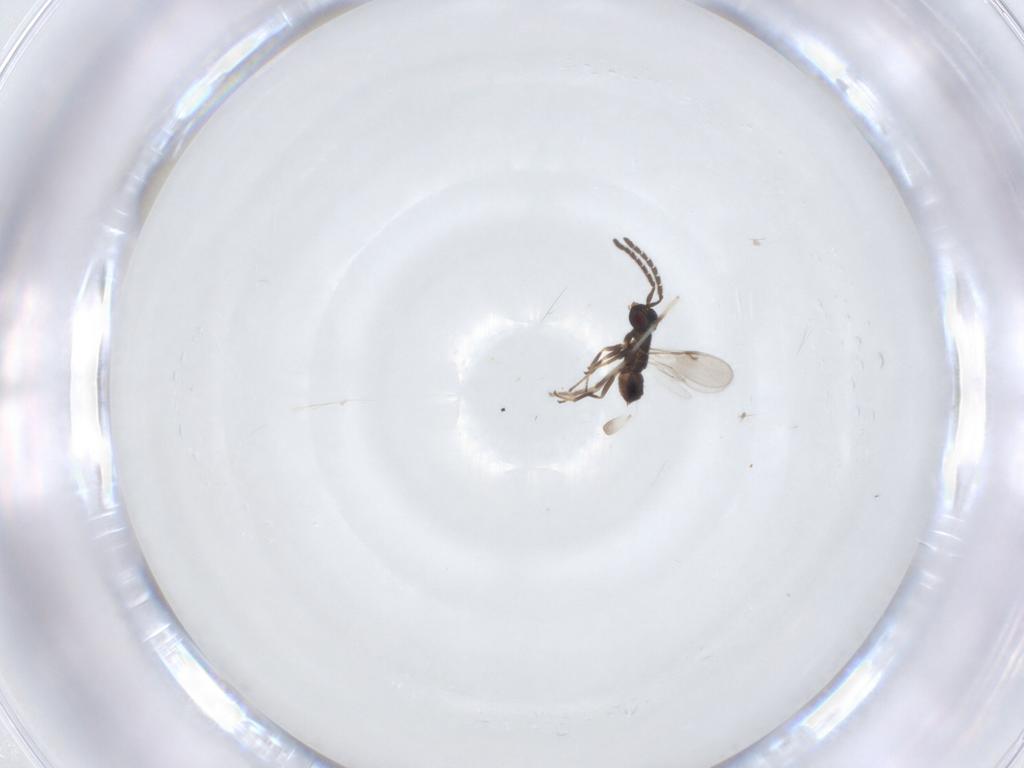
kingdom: Animalia
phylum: Arthropoda
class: Insecta
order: Hymenoptera
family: Encyrtidae
